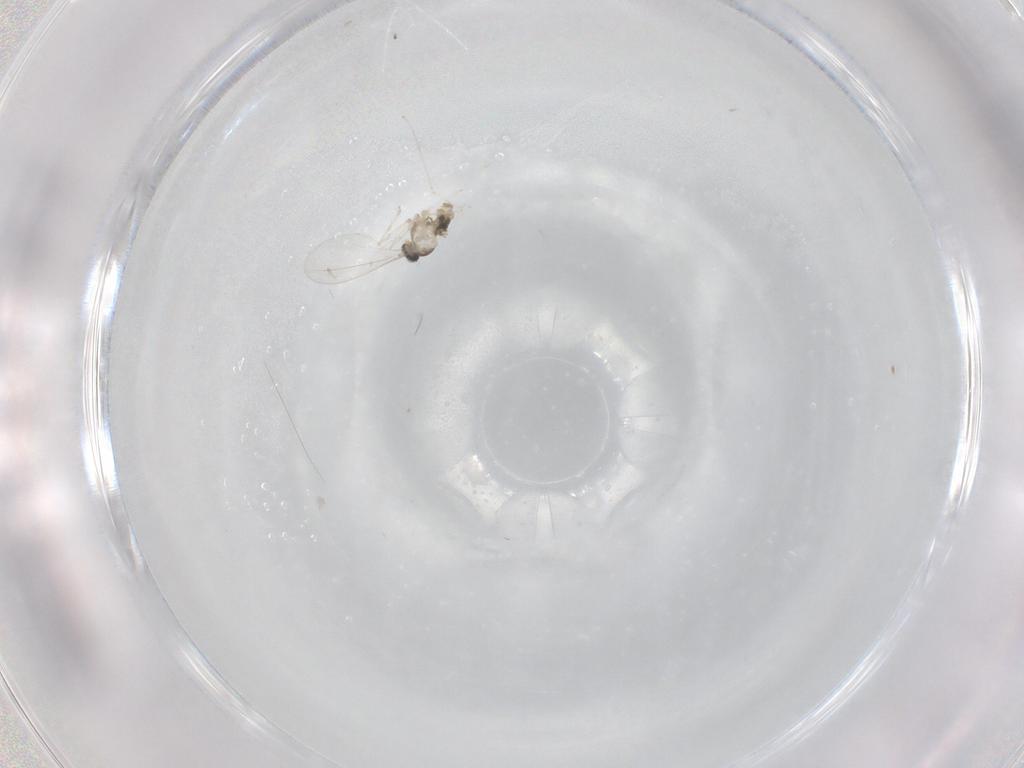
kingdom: Animalia
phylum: Arthropoda
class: Insecta
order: Diptera
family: Cecidomyiidae
